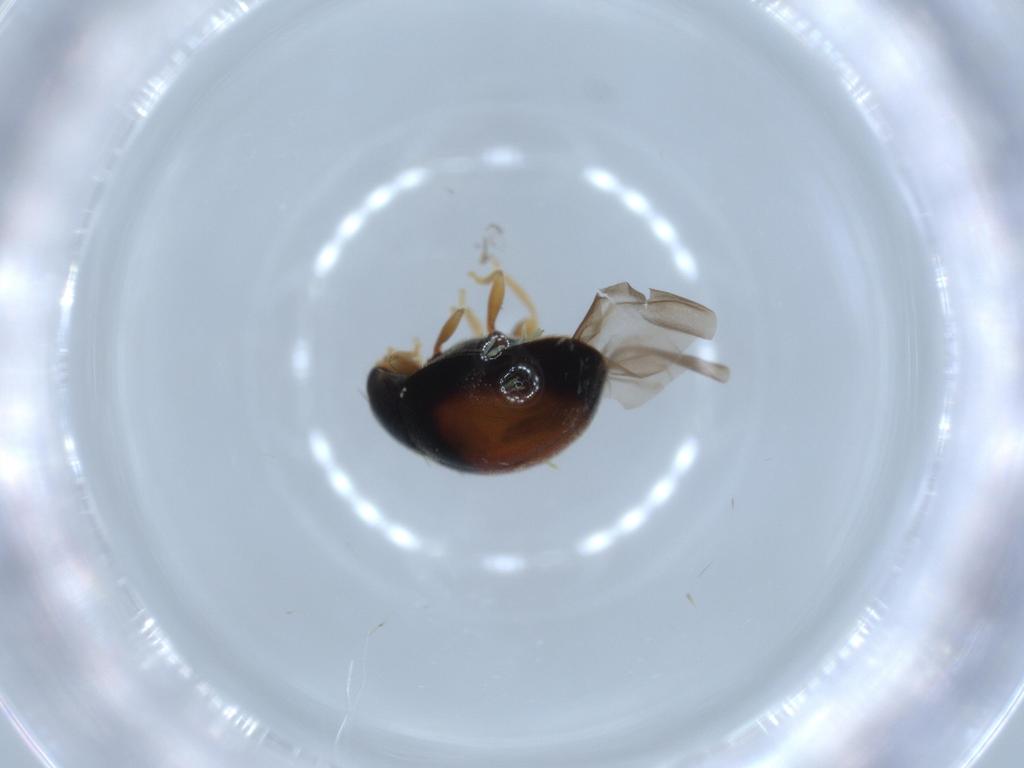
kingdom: Animalia
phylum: Arthropoda
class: Insecta
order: Coleoptera
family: Coccinellidae
